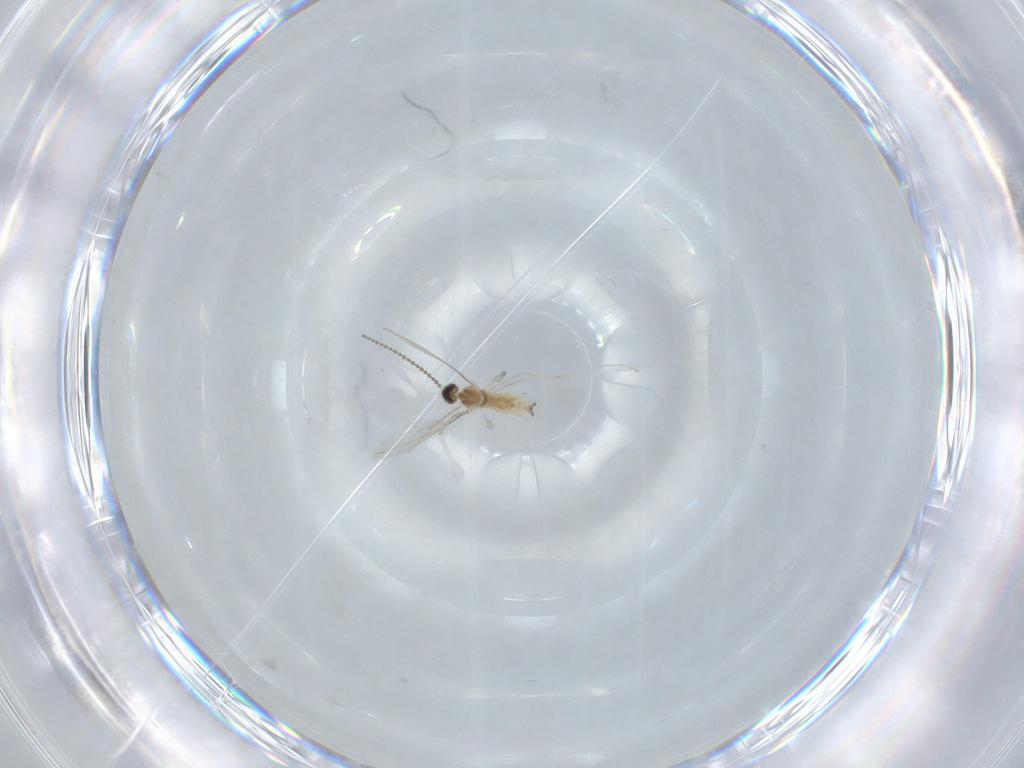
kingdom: Animalia
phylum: Arthropoda
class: Insecta
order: Diptera
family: Cecidomyiidae
